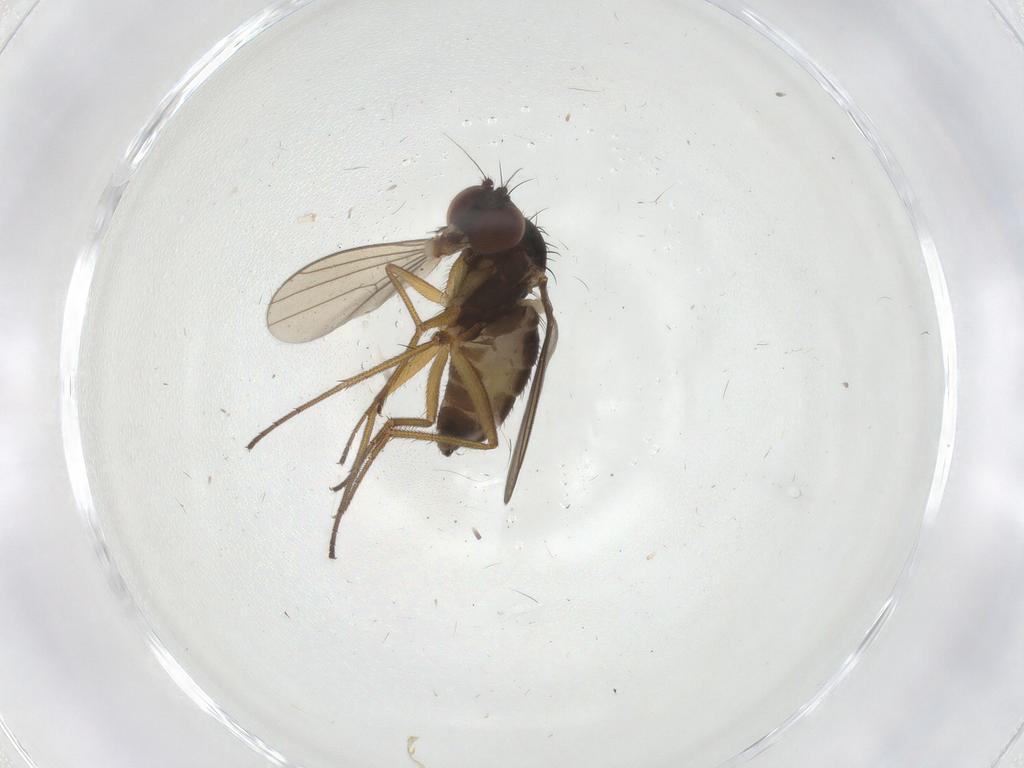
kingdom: Animalia
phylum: Arthropoda
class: Insecta
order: Diptera
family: Dolichopodidae
